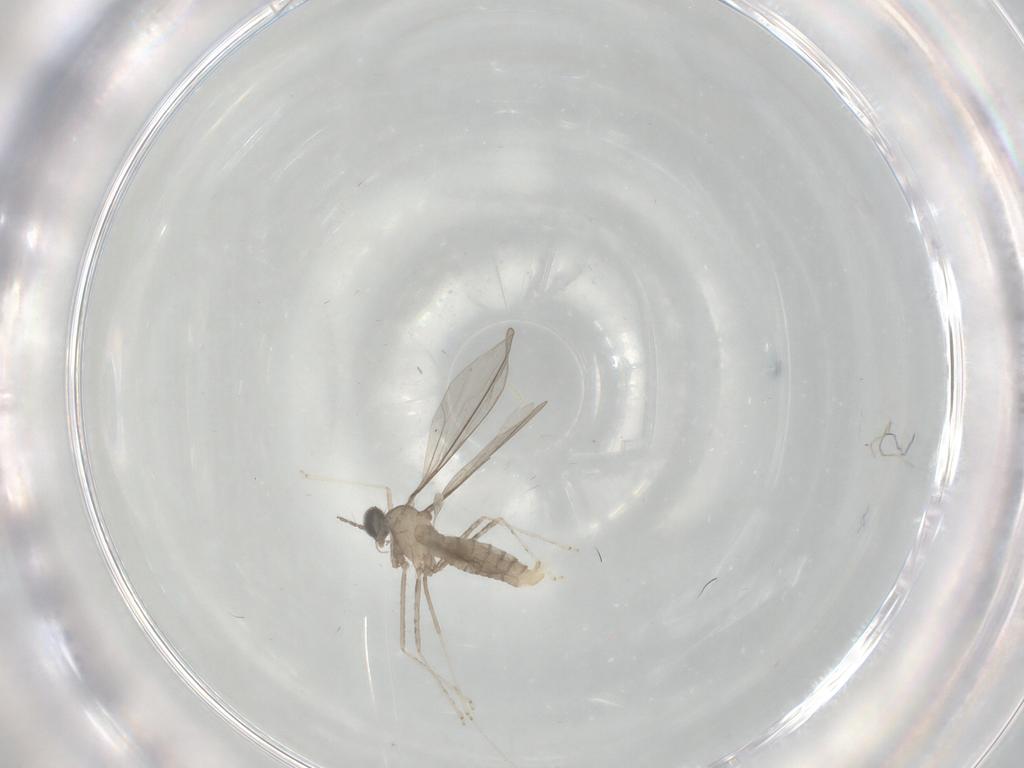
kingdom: Animalia
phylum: Arthropoda
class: Insecta
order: Diptera
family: Cecidomyiidae
